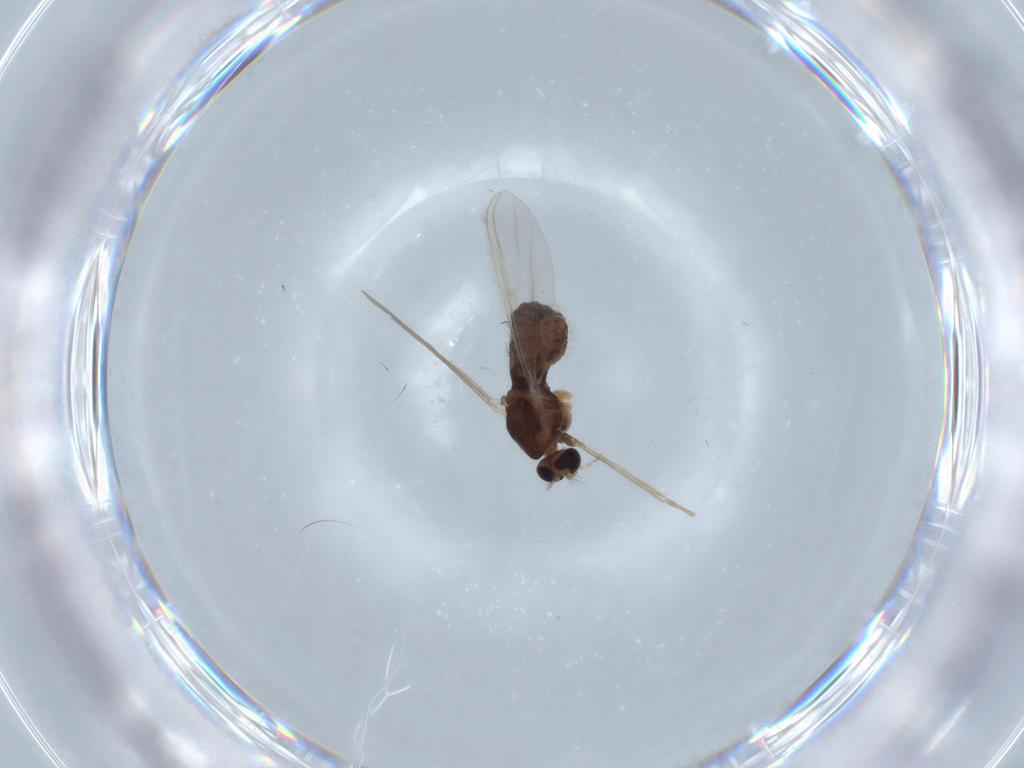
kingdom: Animalia
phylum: Arthropoda
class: Insecta
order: Diptera
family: Chironomidae
